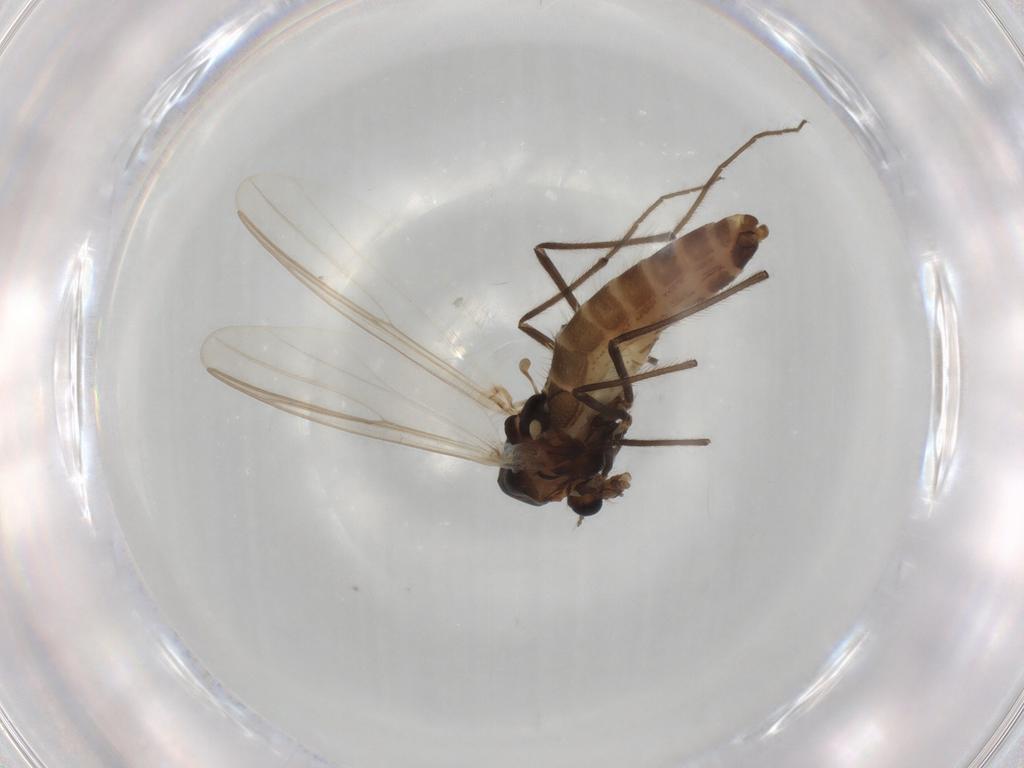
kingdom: Animalia
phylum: Arthropoda
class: Insecta
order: Diptera
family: Chironomidae
